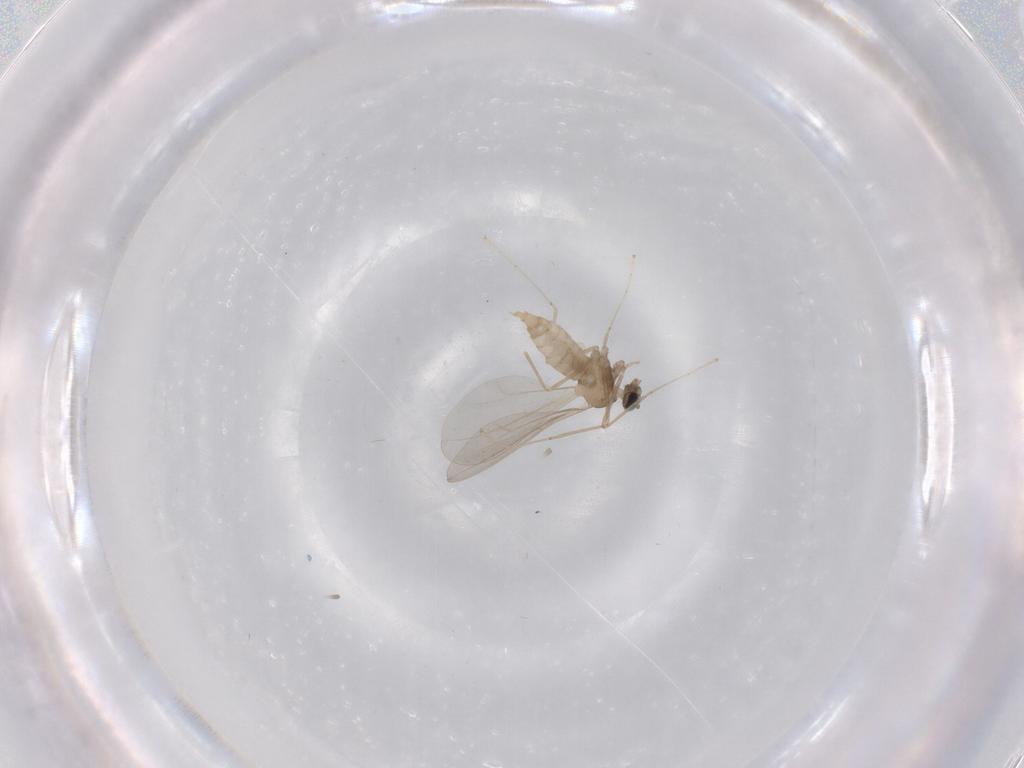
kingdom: Animalia
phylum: Arthropoda
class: Insecta
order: Diptera
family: Cecidomyiidae
